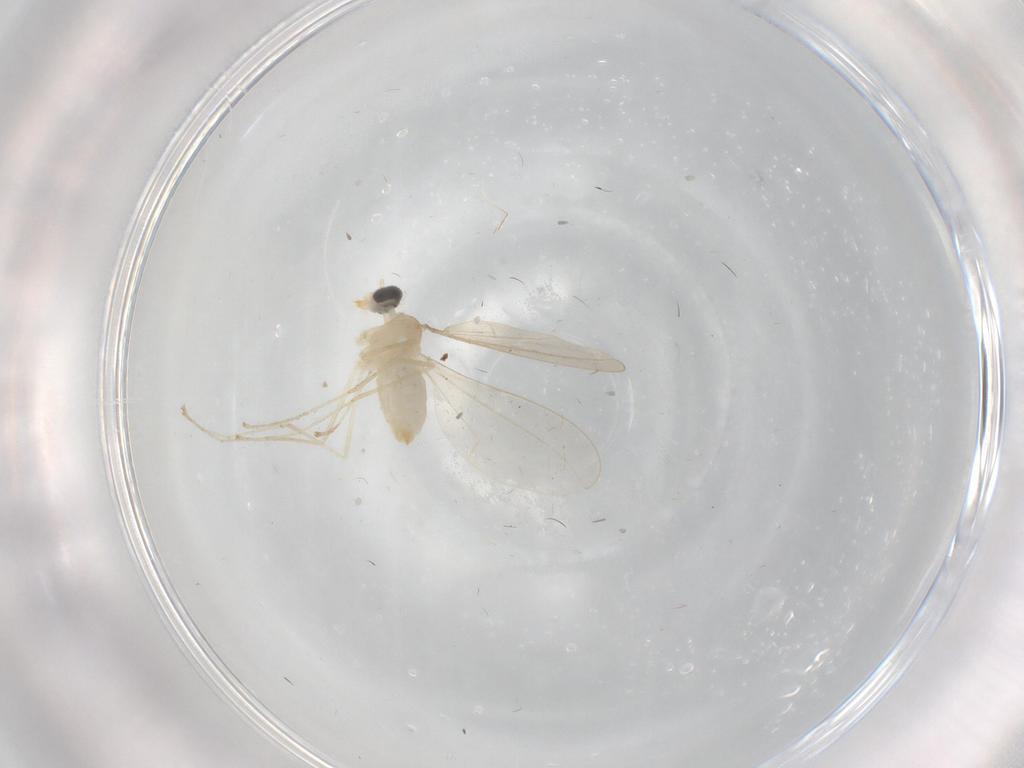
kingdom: Animalia
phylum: Arthropoda
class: Insecta
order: Diptera
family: Cecidomyiidae
